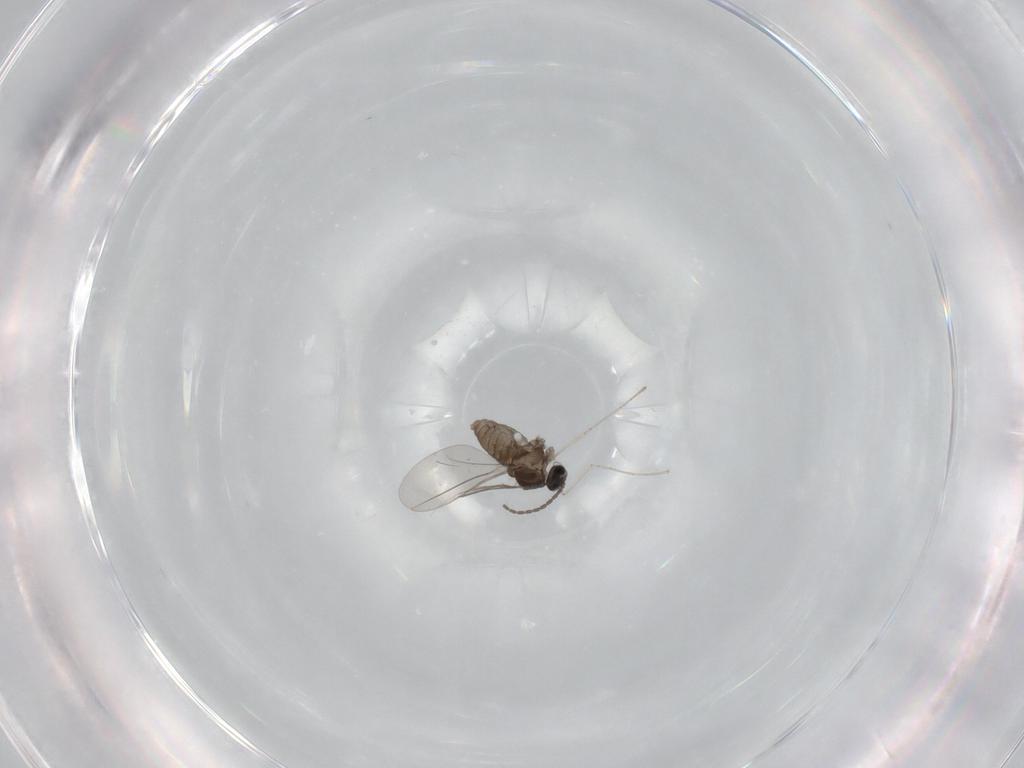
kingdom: Animalia
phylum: Arthropoda
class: Insecta
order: Diptera
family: Cecidomyiidae
